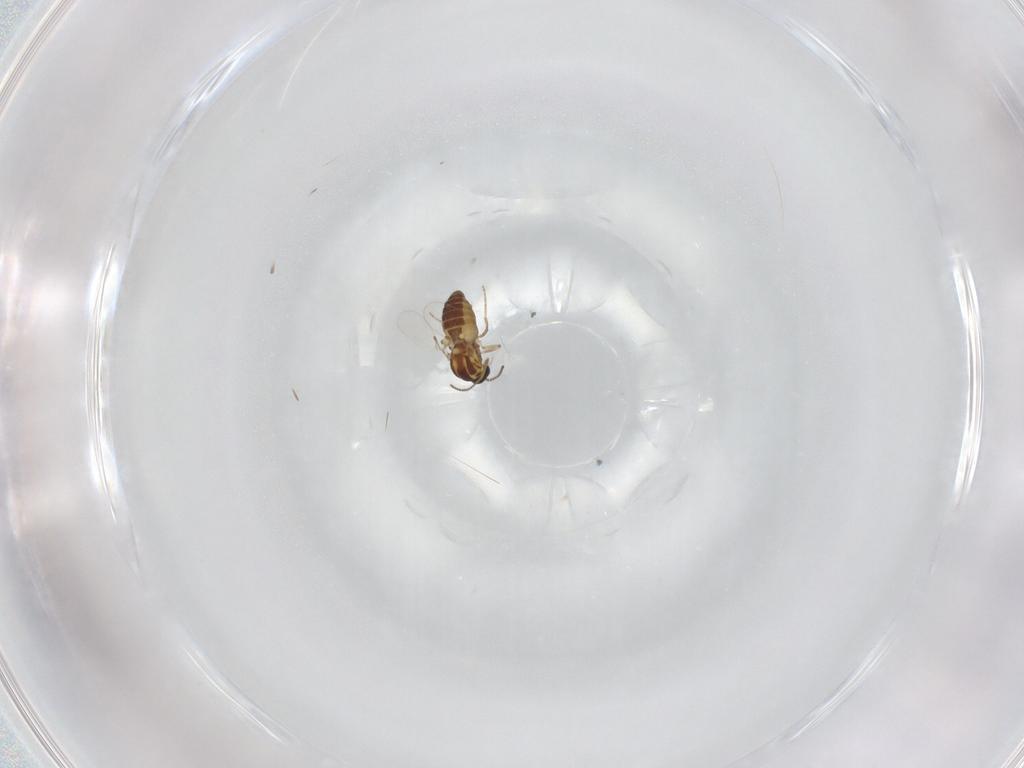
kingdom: Animalia
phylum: Arthropoda
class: Insecta
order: Diptera
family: Ceratopogonidae
